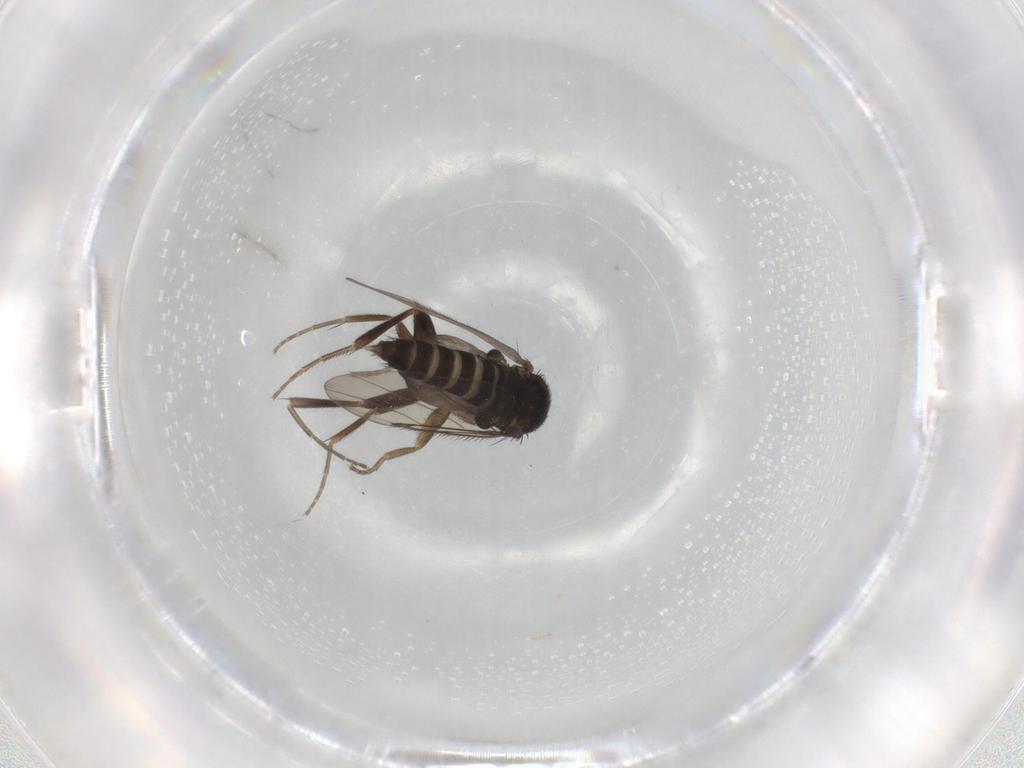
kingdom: Animalia
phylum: Arthropoda
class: Insecta
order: Diptera
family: Phoridae
